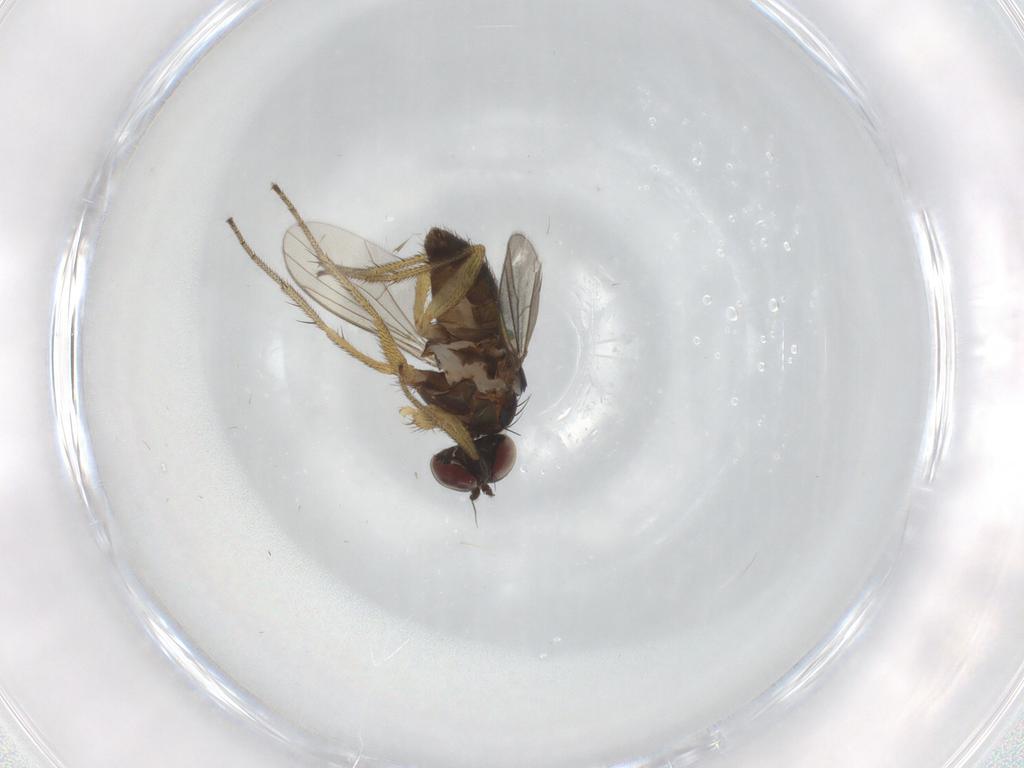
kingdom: Animalia
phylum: Arthropoda
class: Insecta
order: Diptera
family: Dolichopodidae
